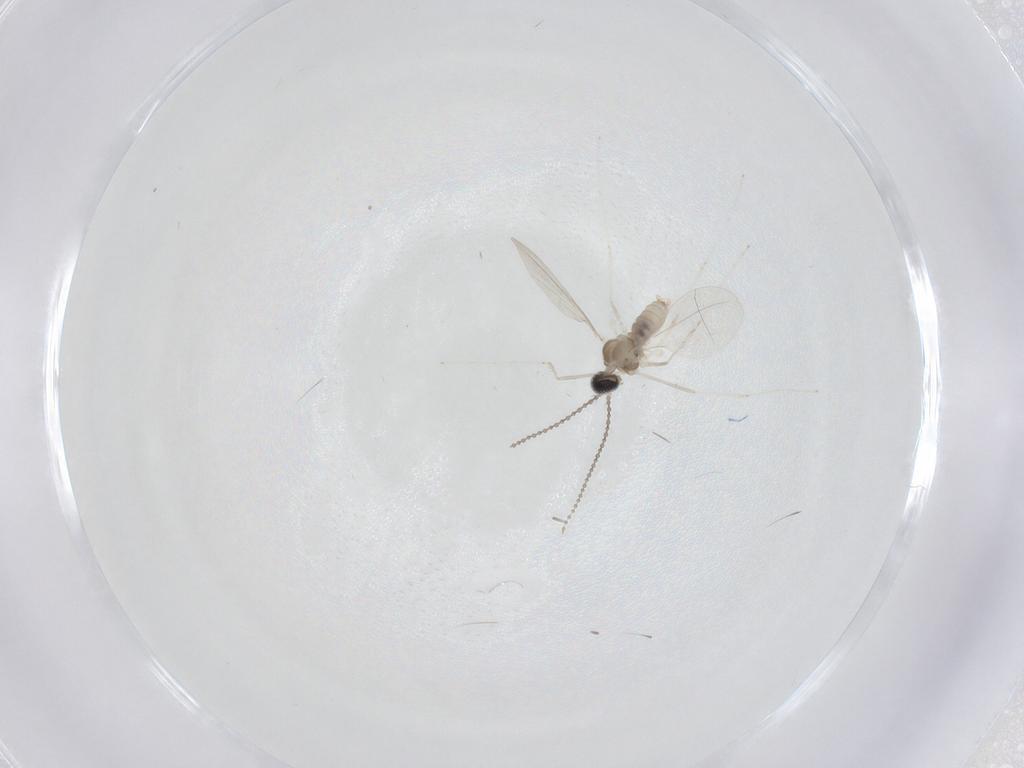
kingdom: Animalia
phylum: Arthropoda
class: Insecta
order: Diptera
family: Cecidomyiidae
